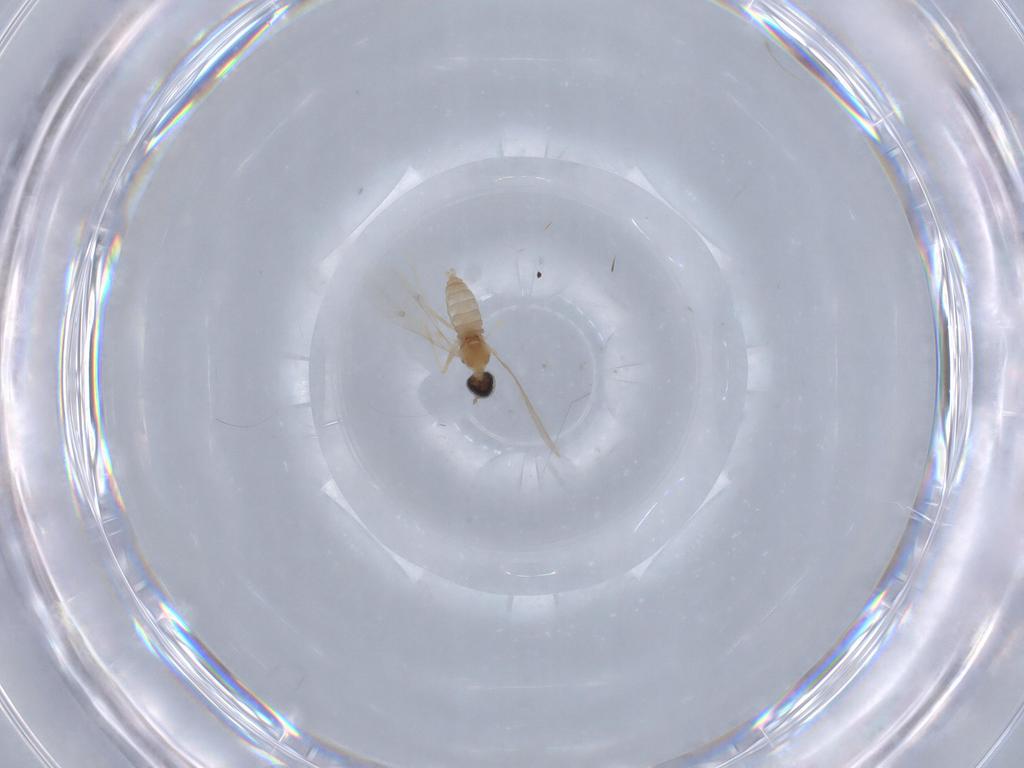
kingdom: Animalia
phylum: Arthropoda
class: Insecta
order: Diptera
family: Cecidomyiidae
